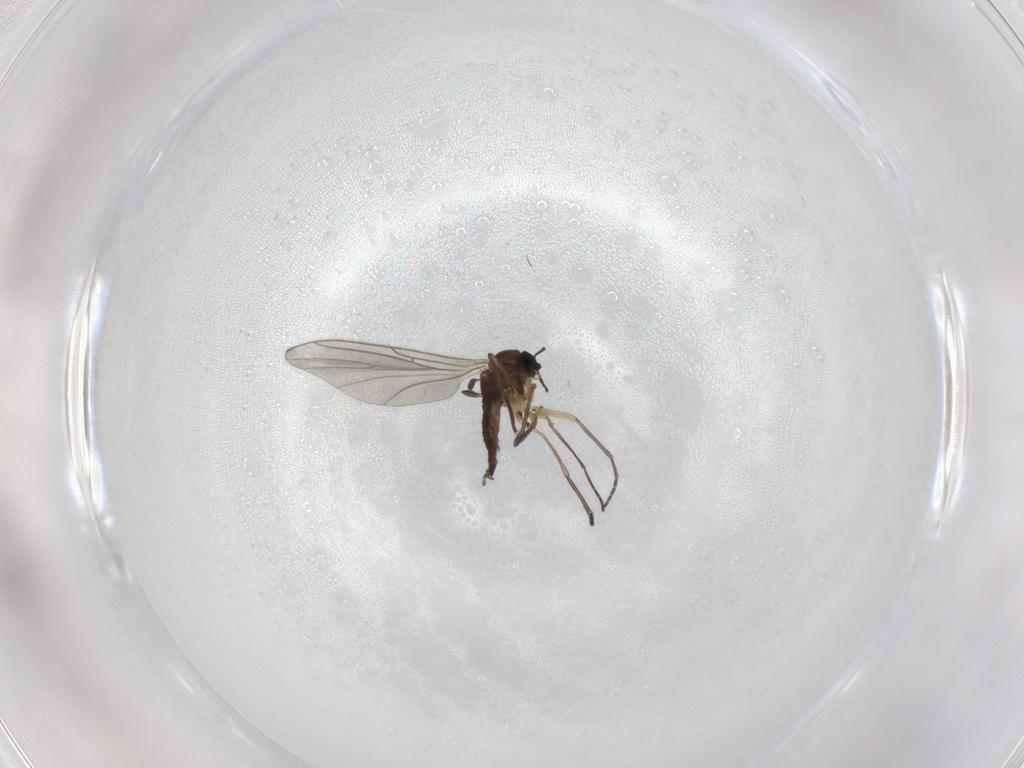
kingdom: Animalia
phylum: Arthropoda
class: Insecta
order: Diptera
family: Sciaridae
